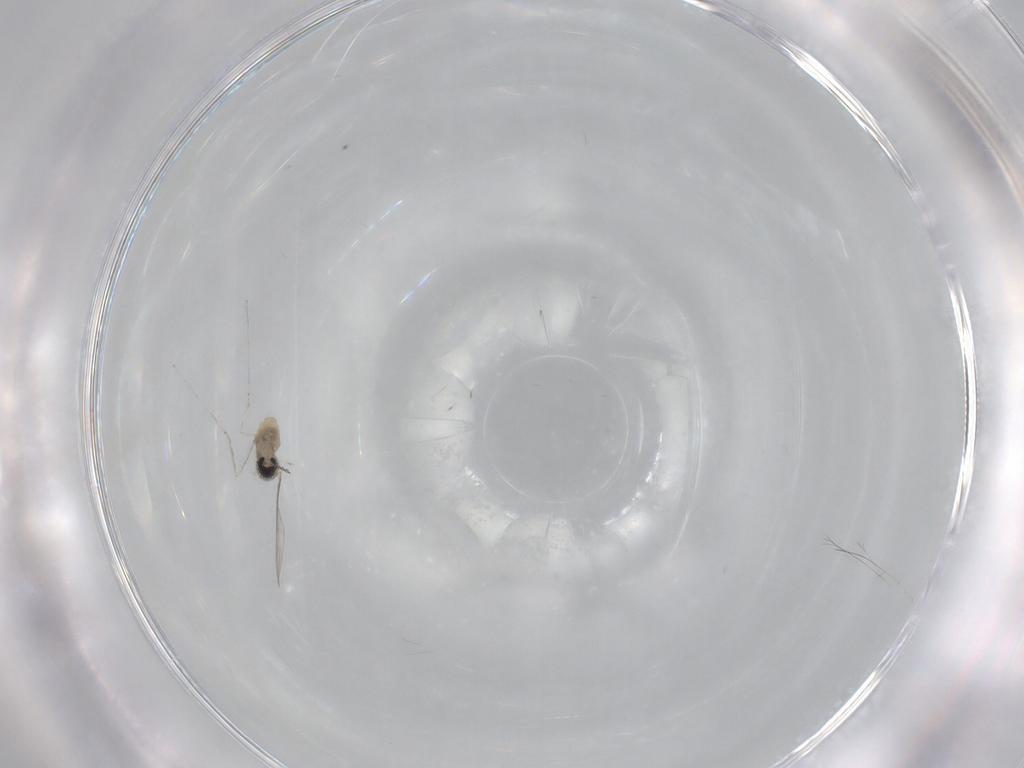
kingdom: Animalia
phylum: Arthropoda
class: Insecta
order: Diptera
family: Cecidomyiidae
